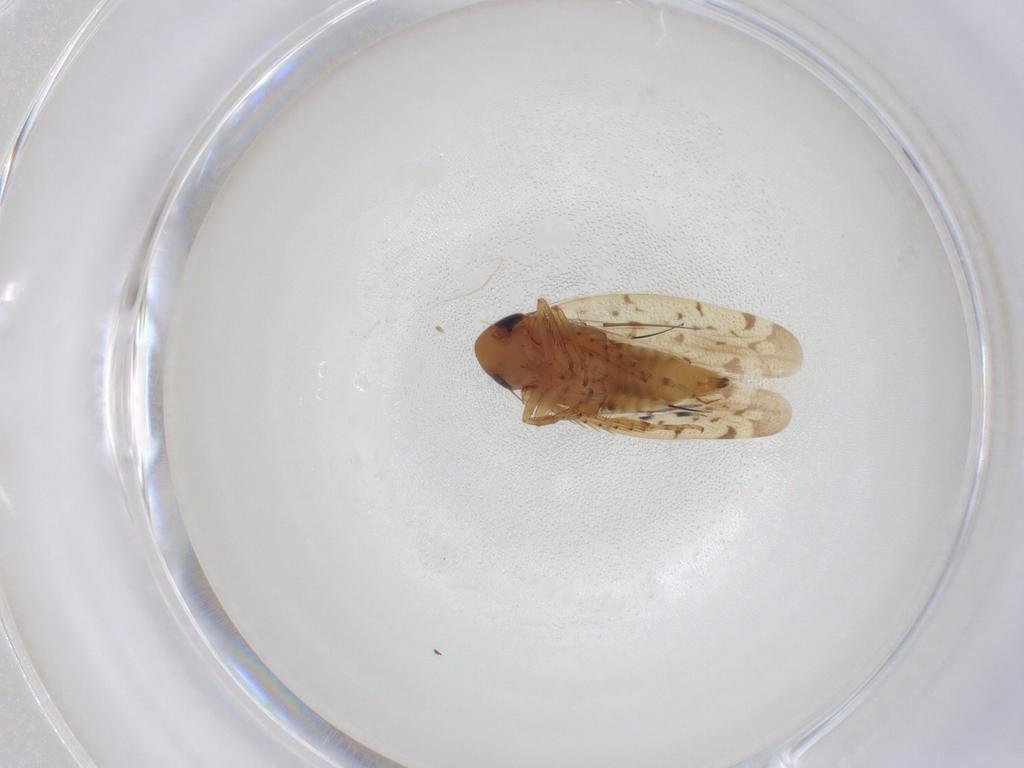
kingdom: Animalia
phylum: Arthropoda
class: Insecta
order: Hemiptera
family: Cicadellidae
